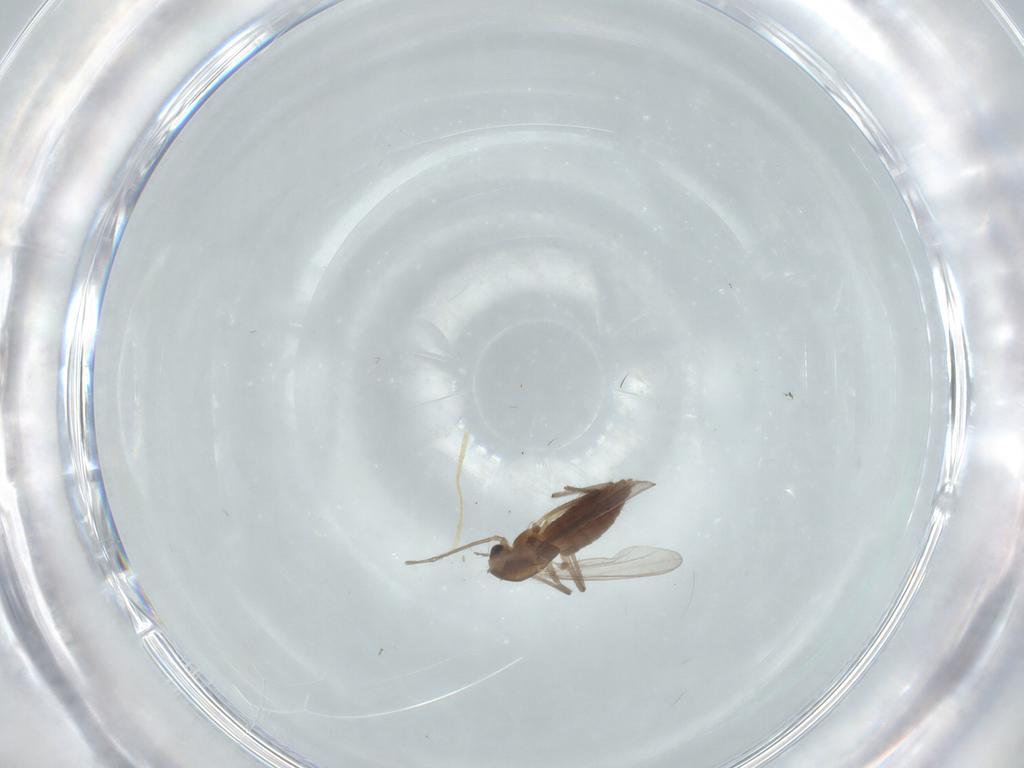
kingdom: Animalia
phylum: Arthropoda
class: Insecta
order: Diptera
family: Chironomidae
